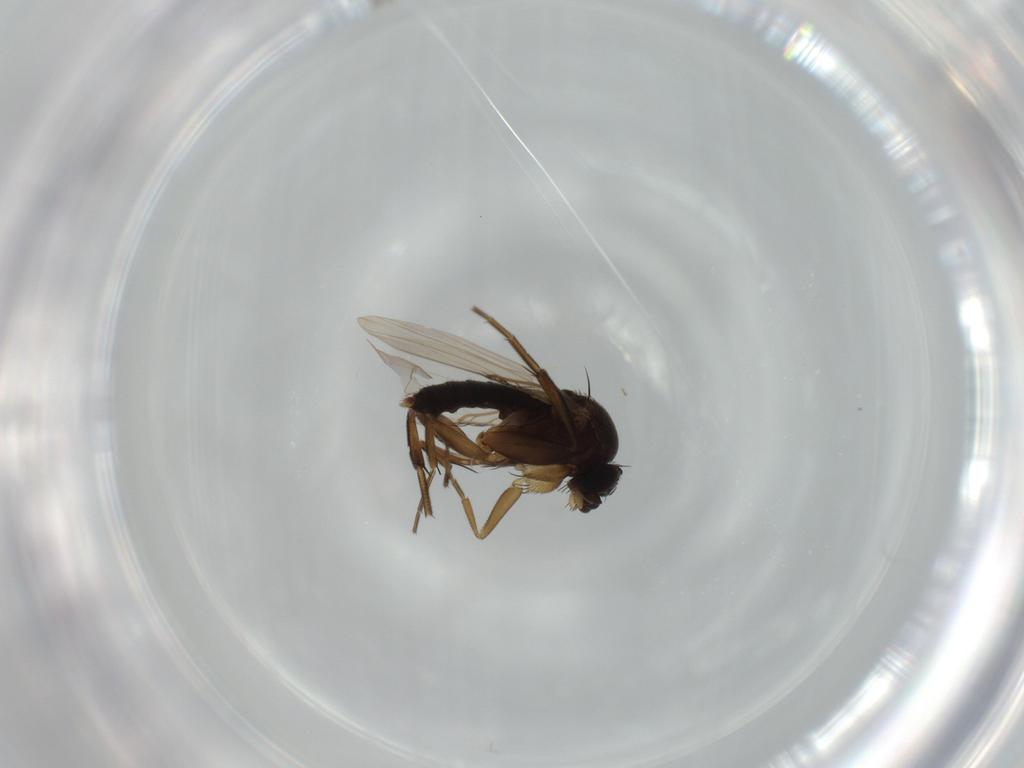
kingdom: Animalia
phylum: Arthropoda
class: Insecta
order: Diptera
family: Phoridae
